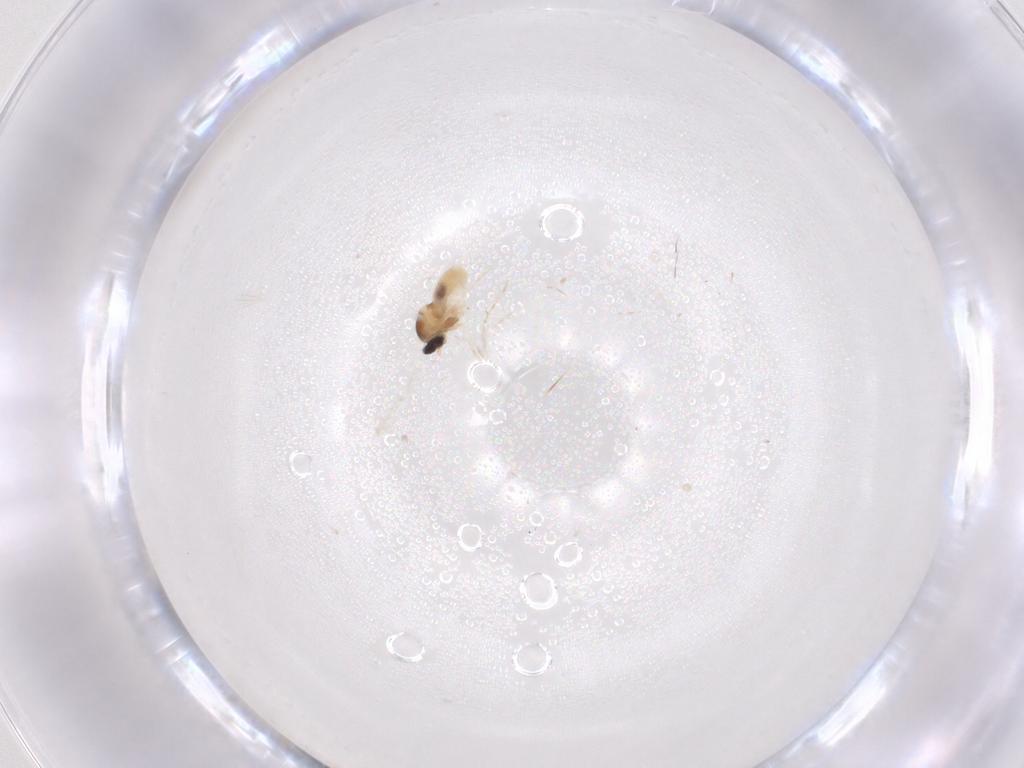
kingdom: Animalia
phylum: Arthropoda
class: Insecta
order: Diptera
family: Cecidomyiidae
